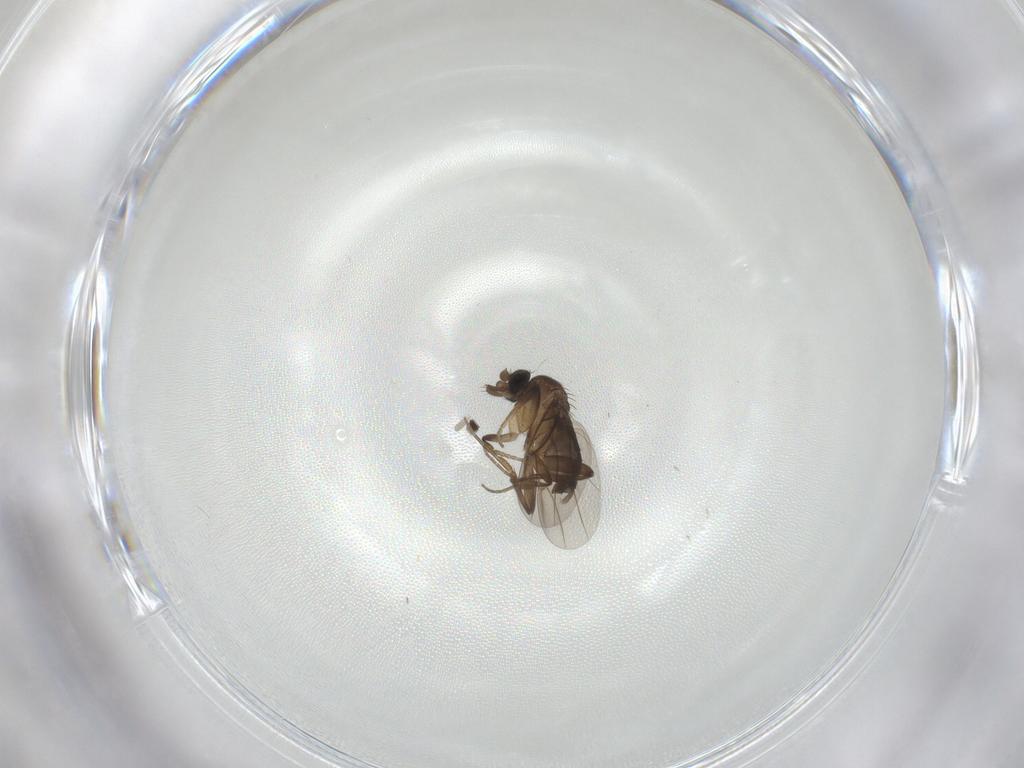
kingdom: Animalia
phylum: Arthropoda
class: Insecta
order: Diptera
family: Phoridae
